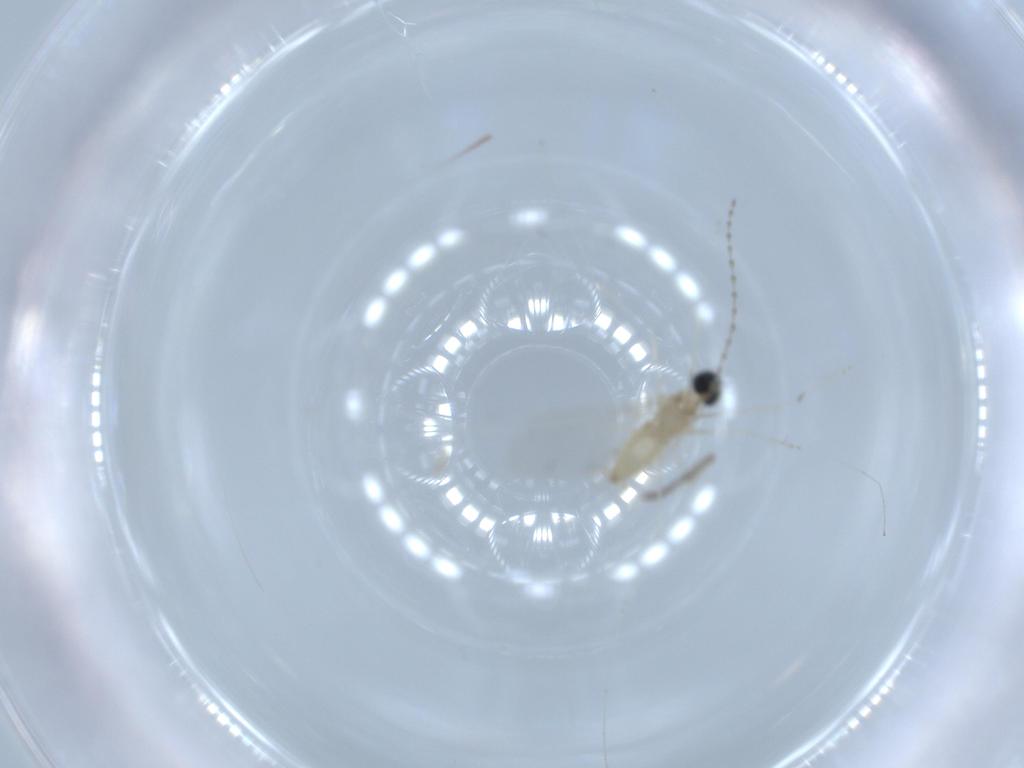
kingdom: Animalia
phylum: Arthropoda
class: Insecta
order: Diptera
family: Cecidomyiidae
